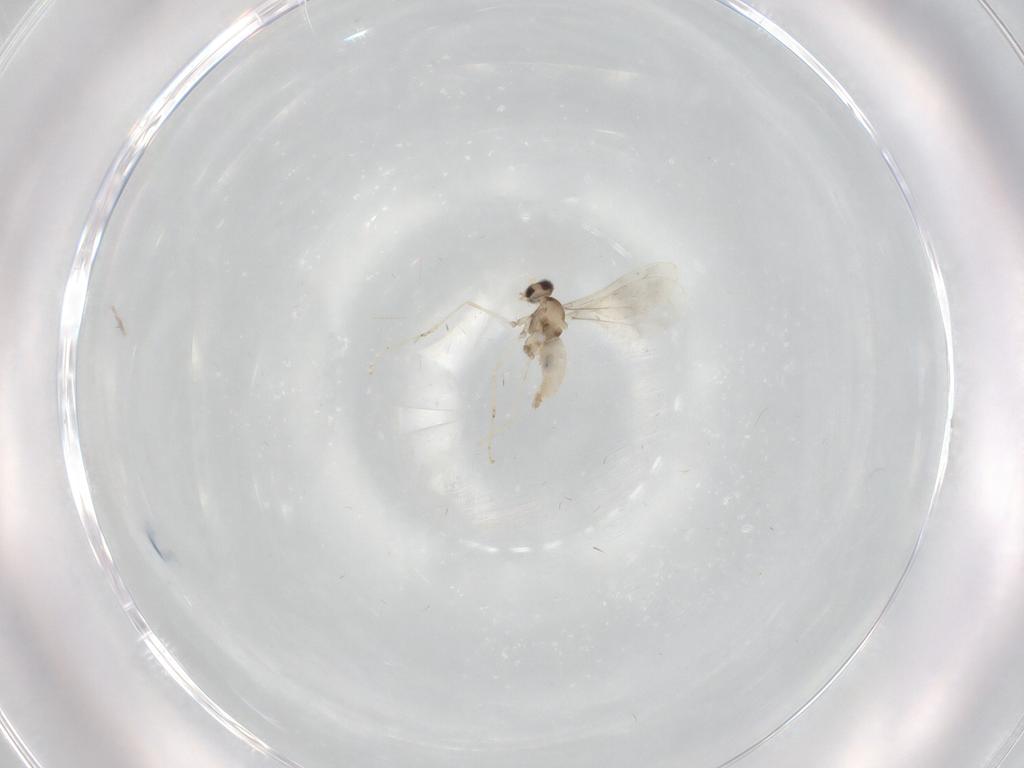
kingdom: Animalia
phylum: Arthropoda
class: Insecta
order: Diptera
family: Cecidomyiidae
